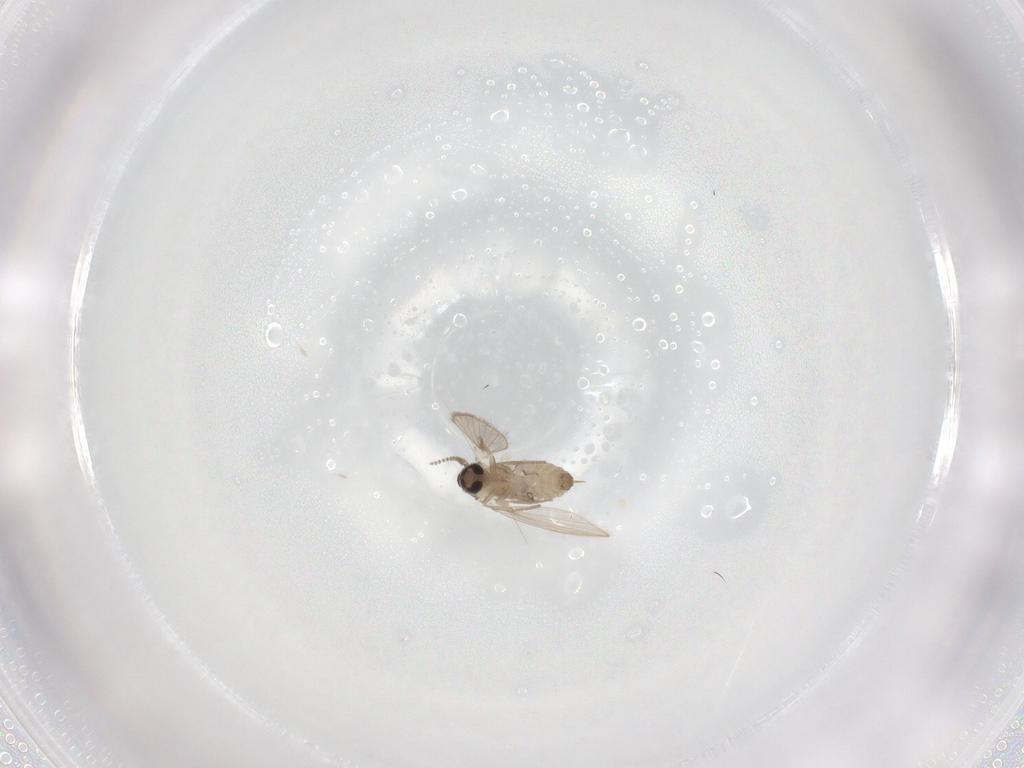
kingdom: Animalia
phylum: Arthropoda
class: Insecta
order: Diptera
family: Psychodidae
